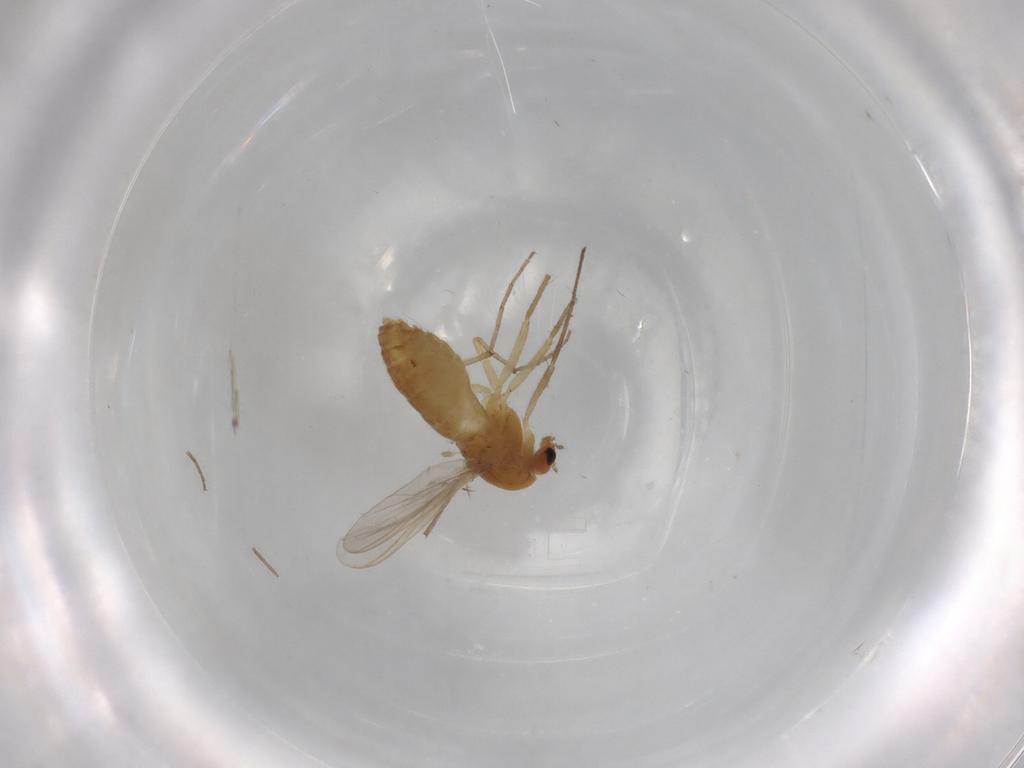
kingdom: Animalia
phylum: Arthropoda
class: Insecta
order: Diptera
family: Chironomidae
